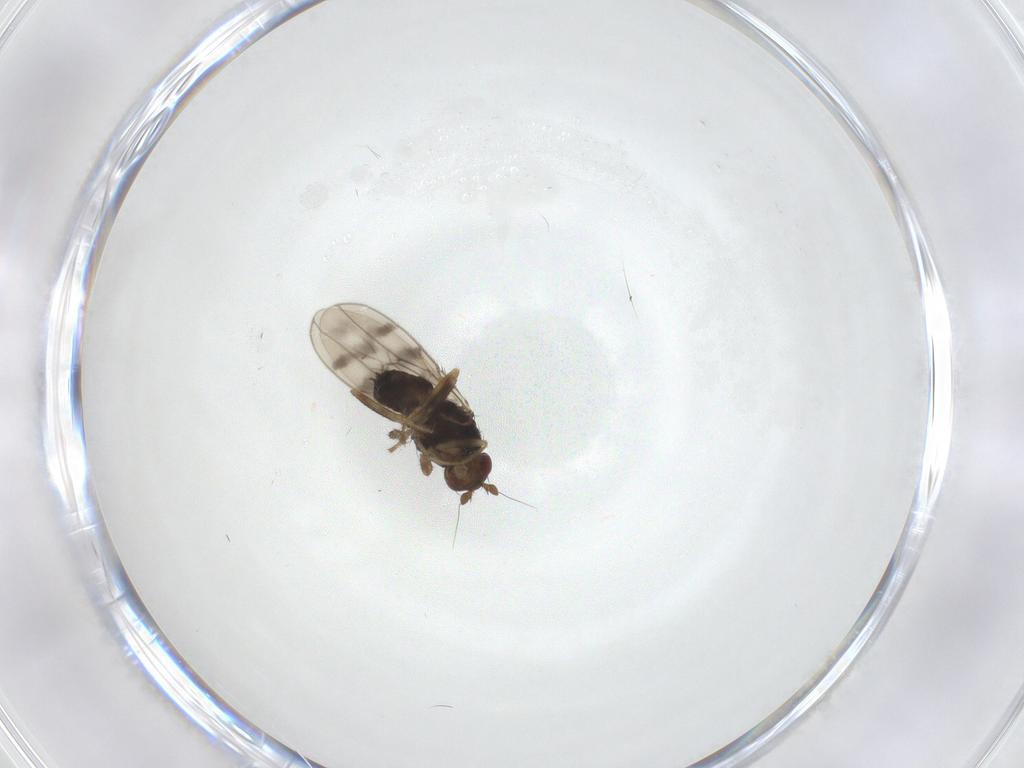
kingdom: Animalia
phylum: Arthropoda
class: Insecta
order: Diptera
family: Sphaeroceridae
